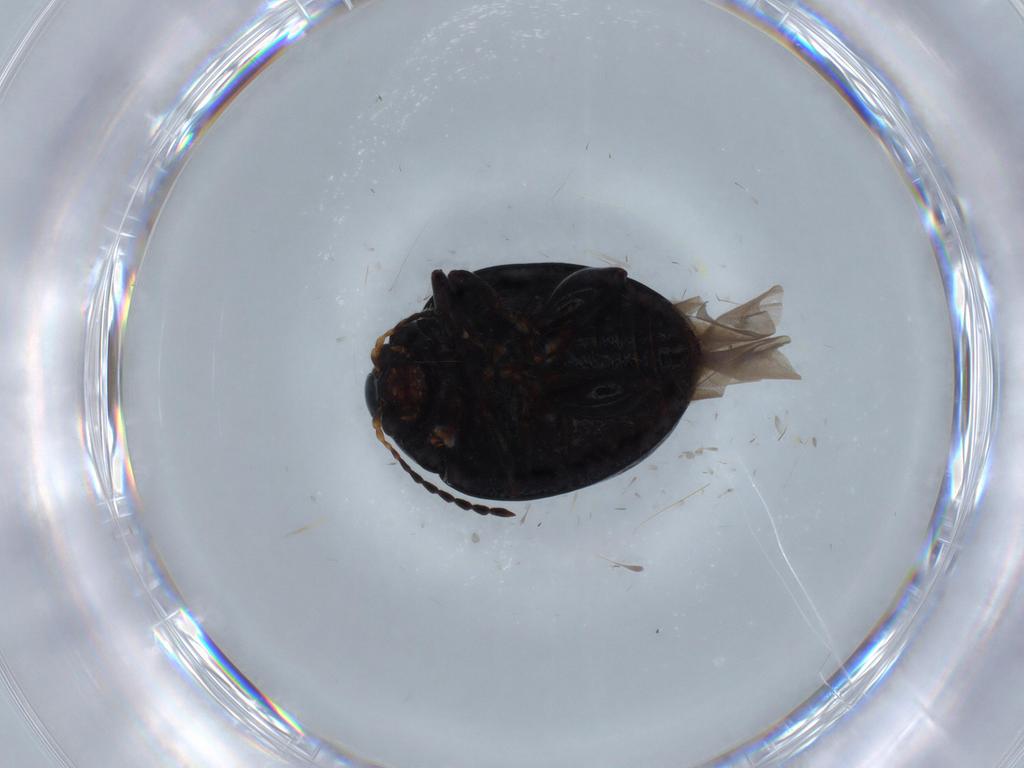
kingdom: Animalia
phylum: Arthropoda
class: Insecta
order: Coleoptera
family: Chrysomelidae
